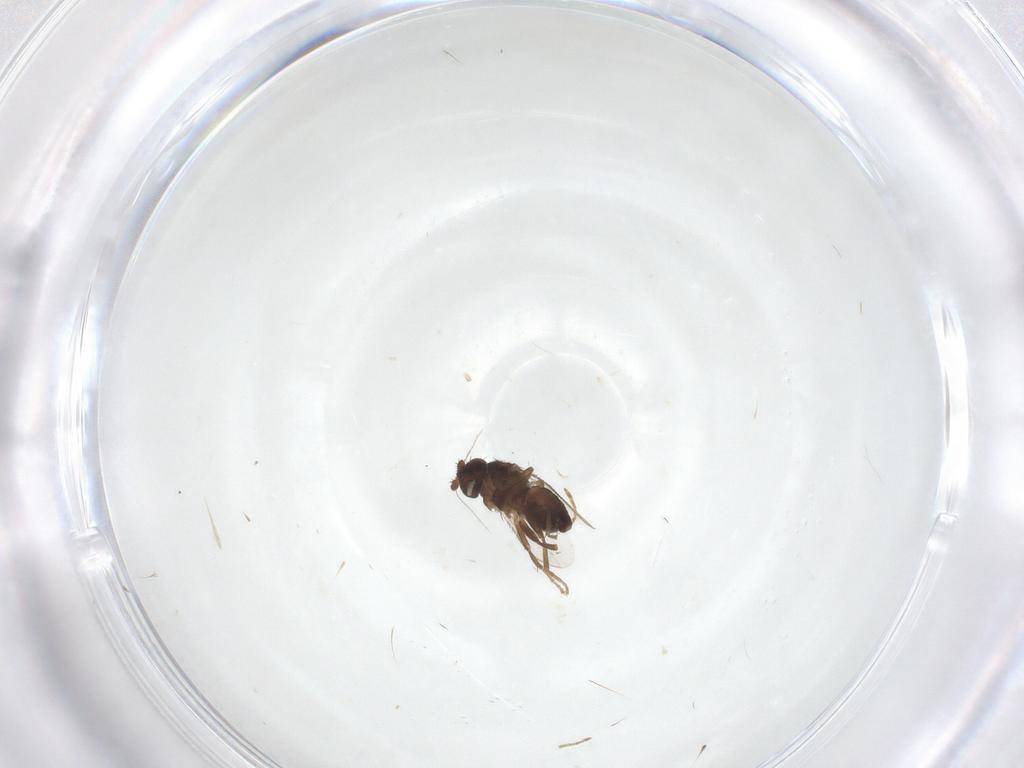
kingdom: Animalia
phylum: Arthropoda
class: Insecta
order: Diptera
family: Sphaeroceridae
